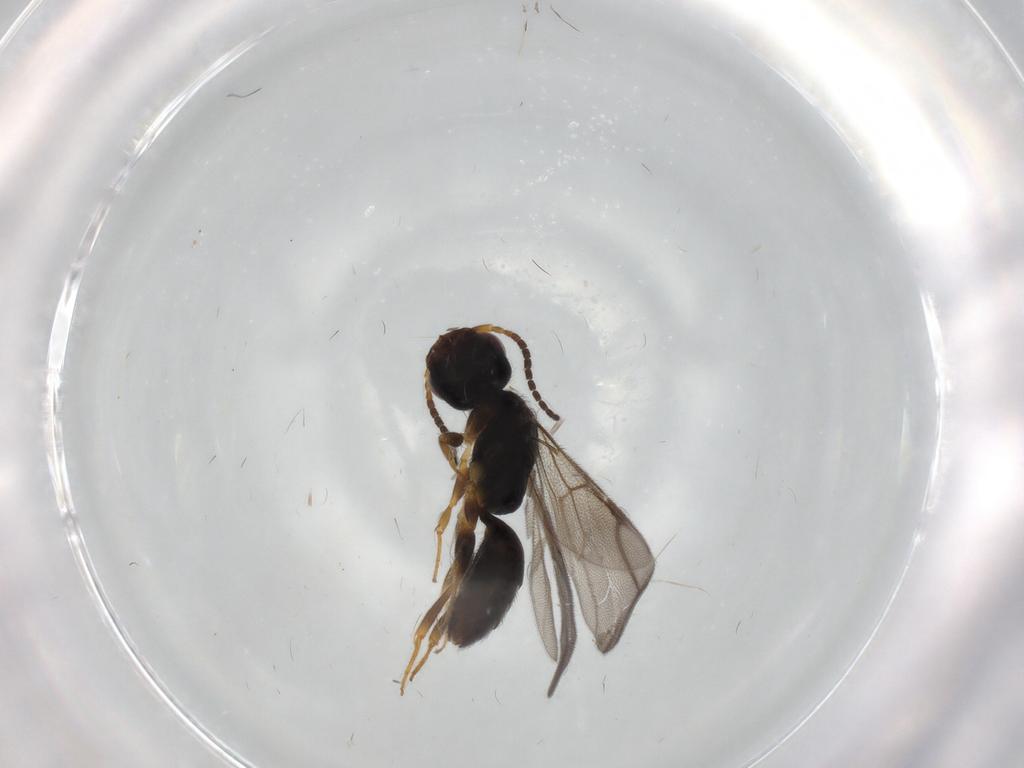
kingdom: Animalia
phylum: Arthropoda
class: Insecta
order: Hymenoptera
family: Bethylidae
